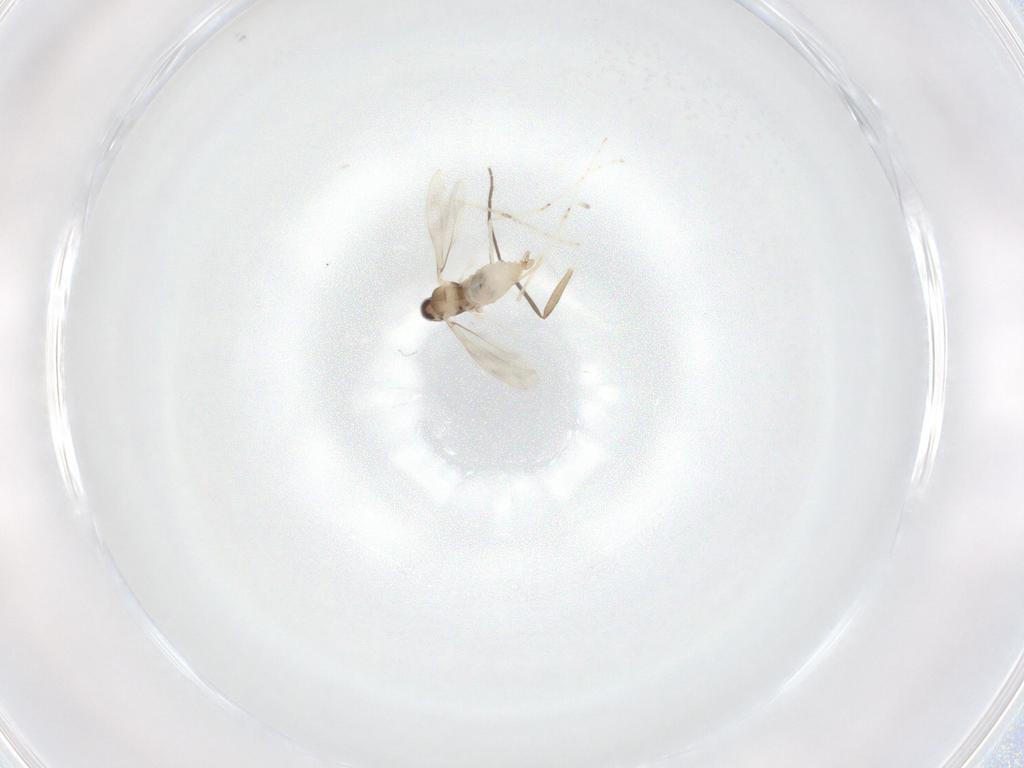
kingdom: Animalia
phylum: Arthropoda
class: Insecta
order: Diptera
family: Chironomidae
